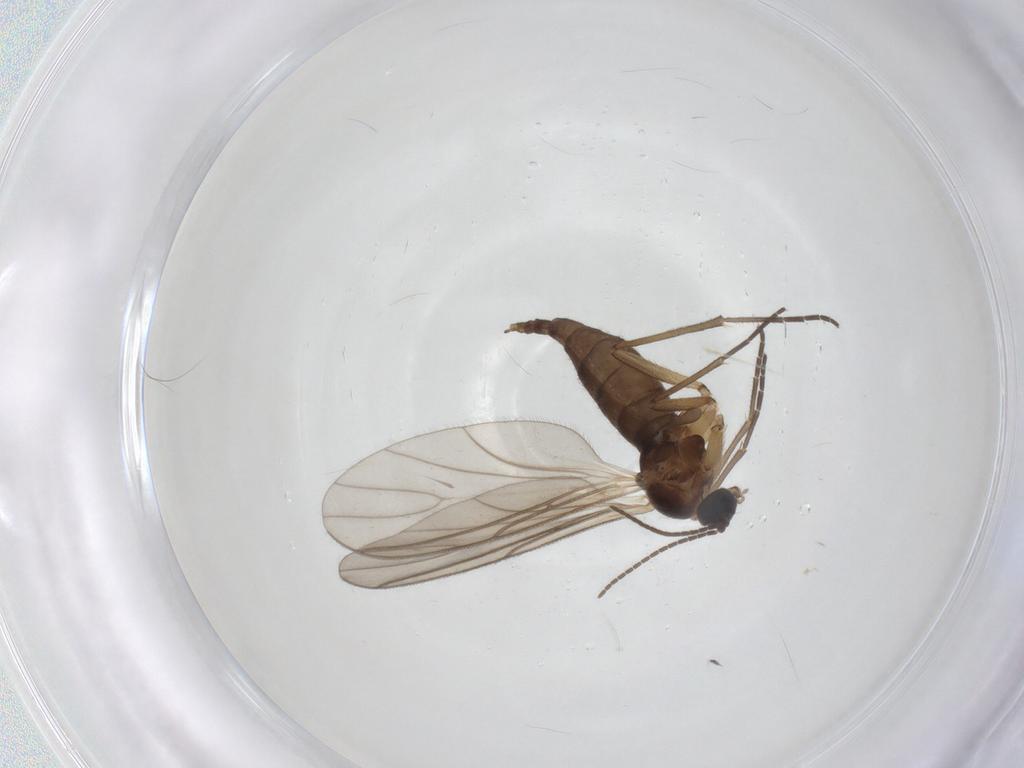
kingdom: Animalia
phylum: Arthropoda
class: Insecta
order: Diptera
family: Sciaridae
